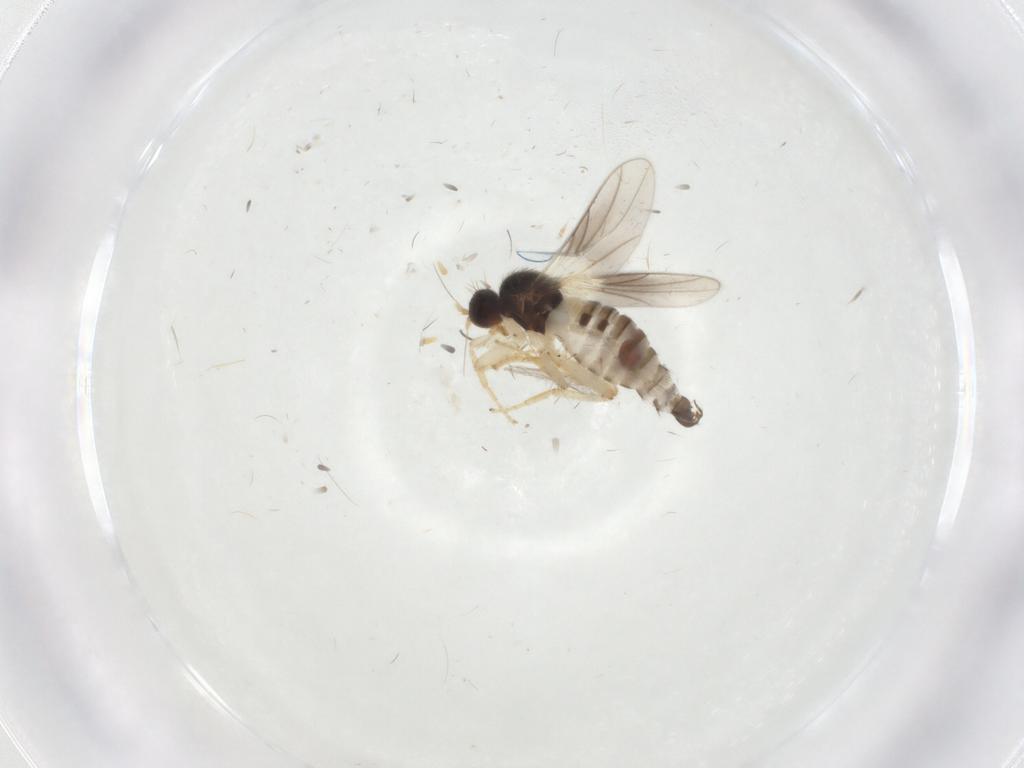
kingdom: Animalia
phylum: Arthropoda
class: Insecta
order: Diptera
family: Hybotidae
